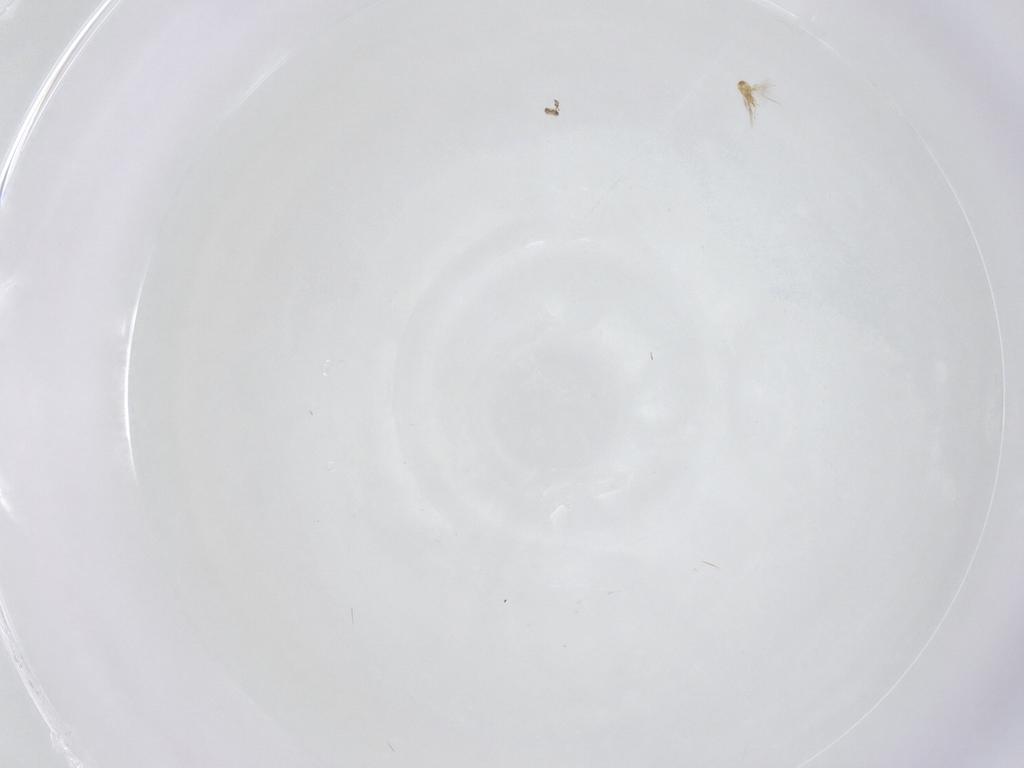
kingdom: Animalia
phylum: Arthropoda
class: Insecta
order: Hymenoptera
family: Mymaridae
